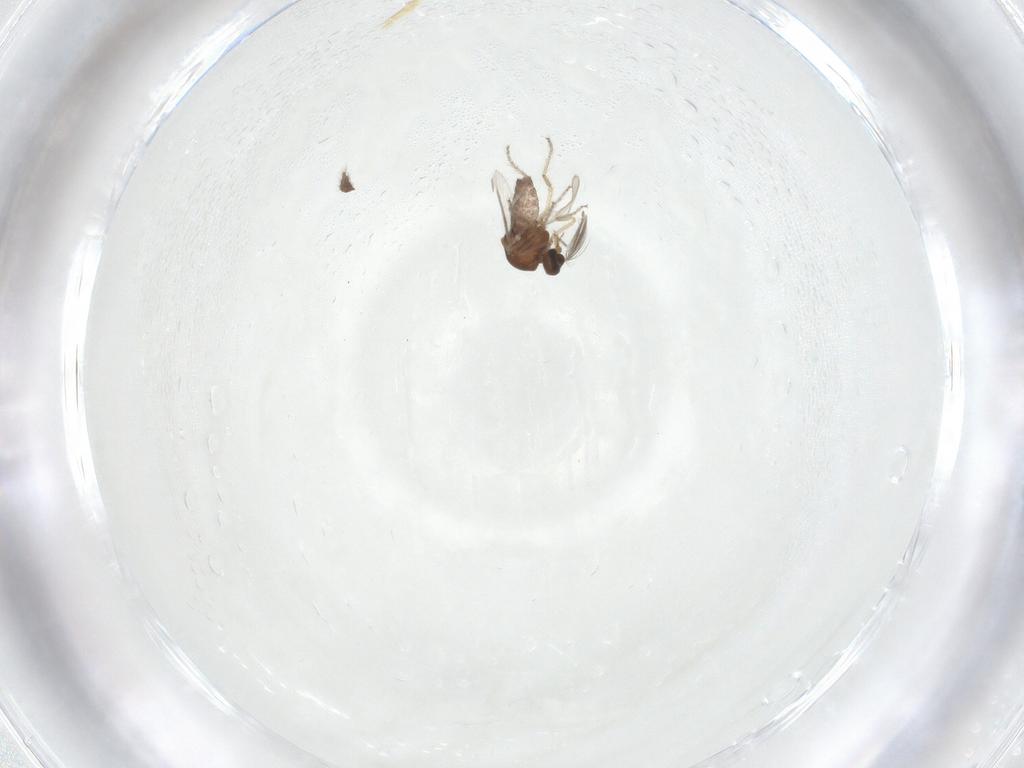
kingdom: Animalia
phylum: Arthropoda
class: Insecta
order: Diptera
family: Ceratopogonidae
